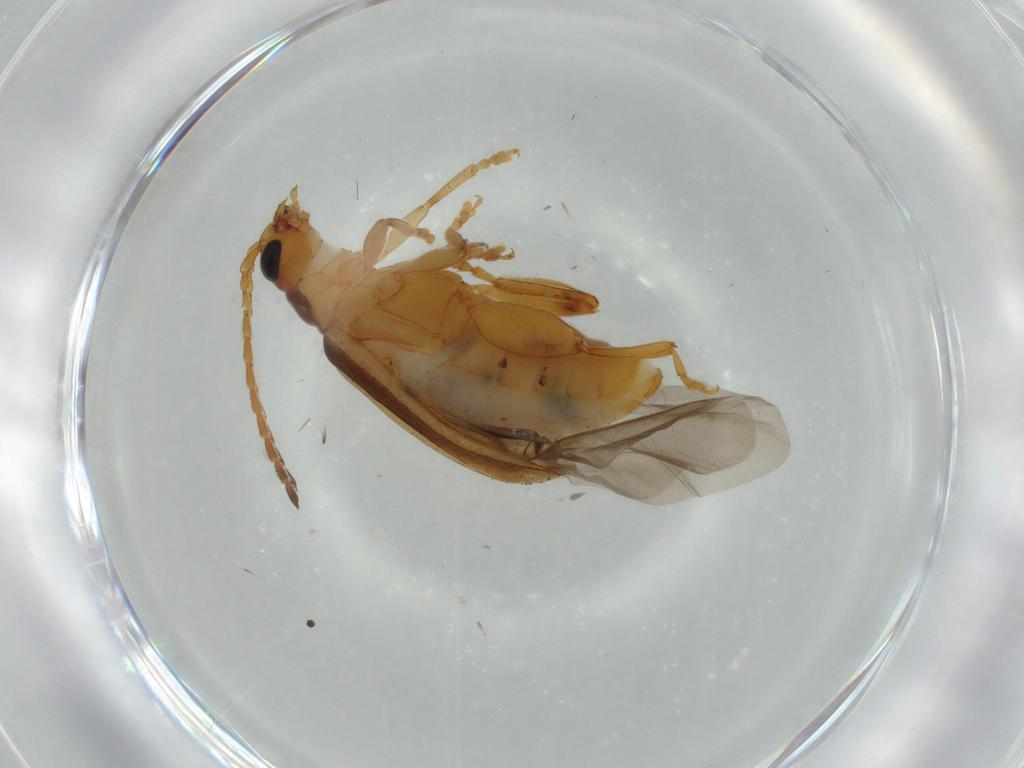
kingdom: Animalia
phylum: Arthropoda
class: Insecta
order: Coleoptera
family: Chrysomelidae
